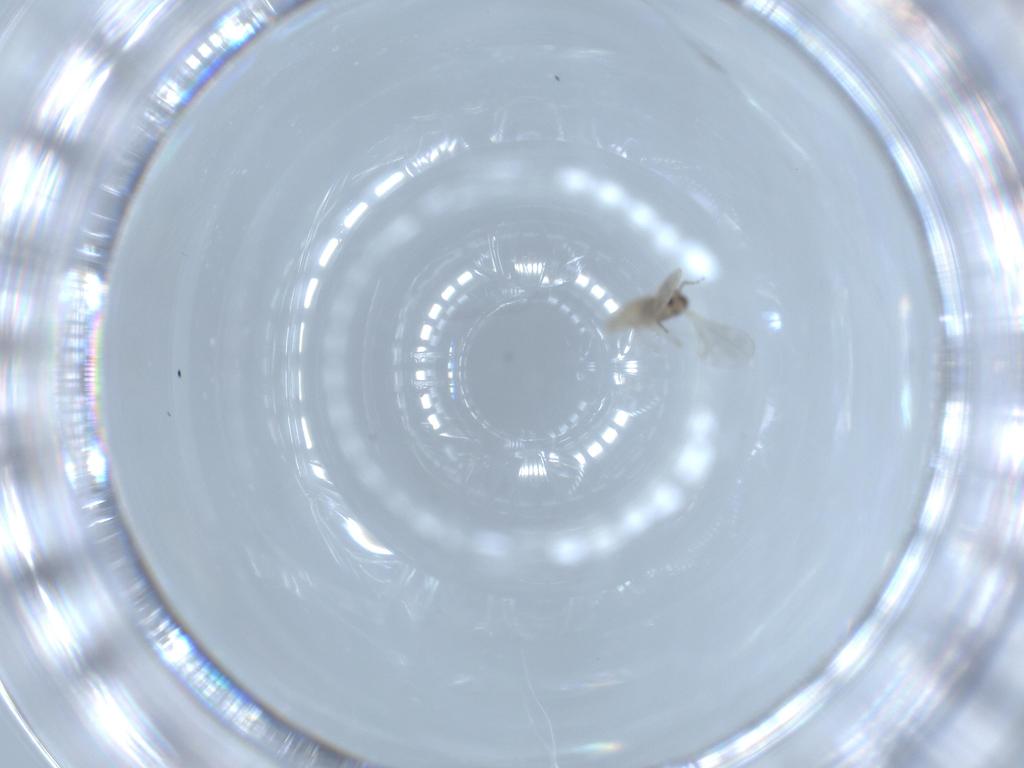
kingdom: Animalia
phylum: Arthropoda
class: Insecta
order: Diptera
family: Cecidomyiidae
